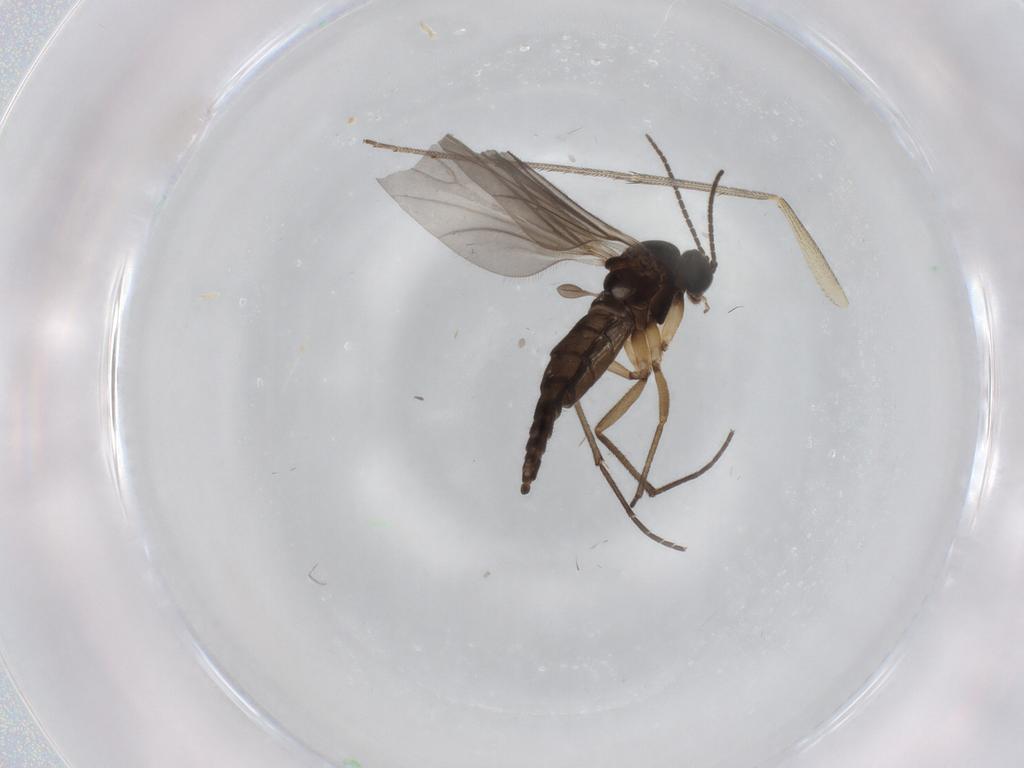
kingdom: Animalia
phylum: Arthropoda
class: Insecta
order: Diptera
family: Sciaridae
